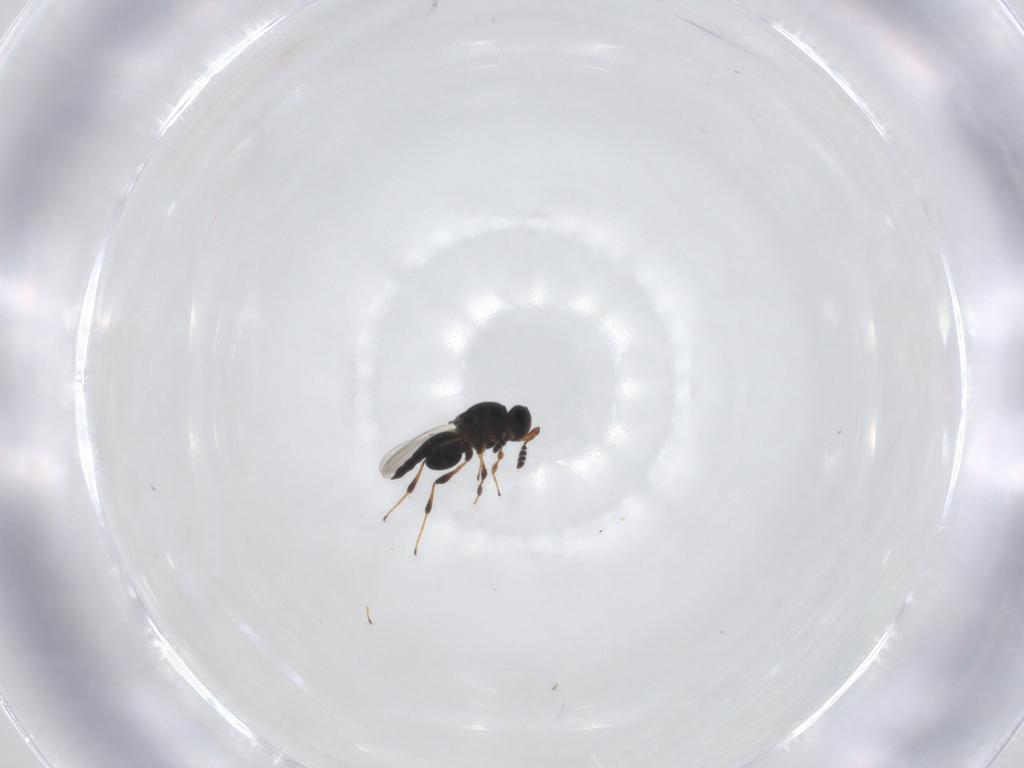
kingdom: Animalia
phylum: Arthropoda
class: Insecta
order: Hymenoptera
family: Platygastridae
